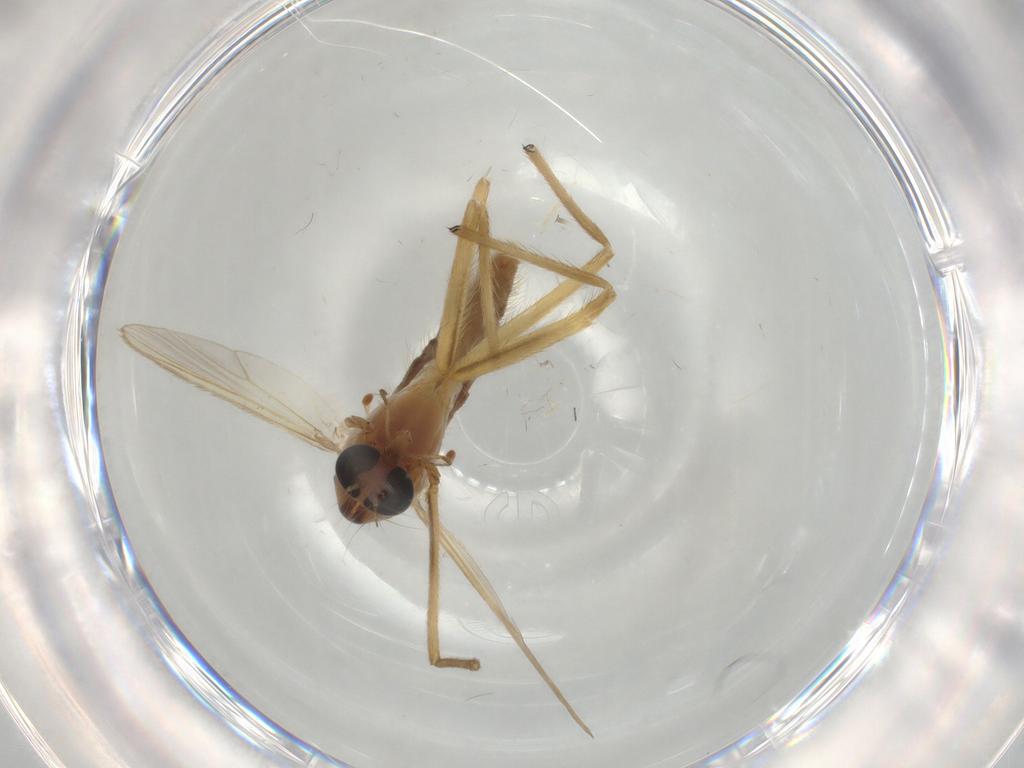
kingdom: Animalia
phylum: Arthropoda
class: Insecta
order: Diptera
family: Chironomidae
